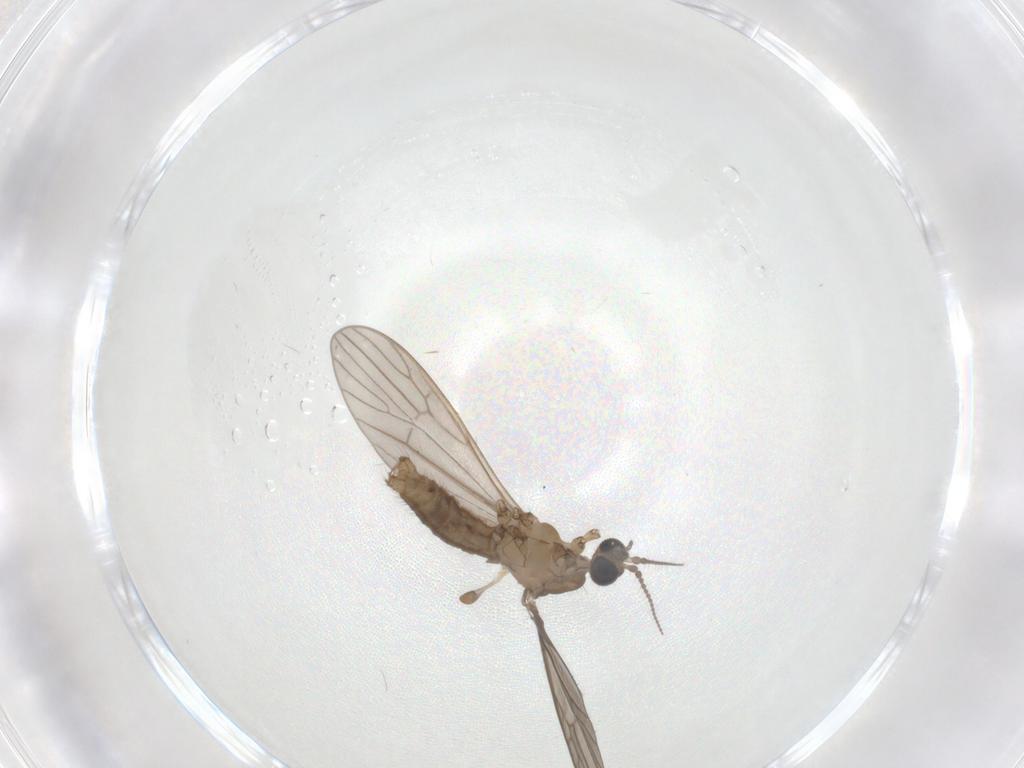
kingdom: Animalia
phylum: Arthropoda
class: Insecta
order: Diptera
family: Limoniidae
